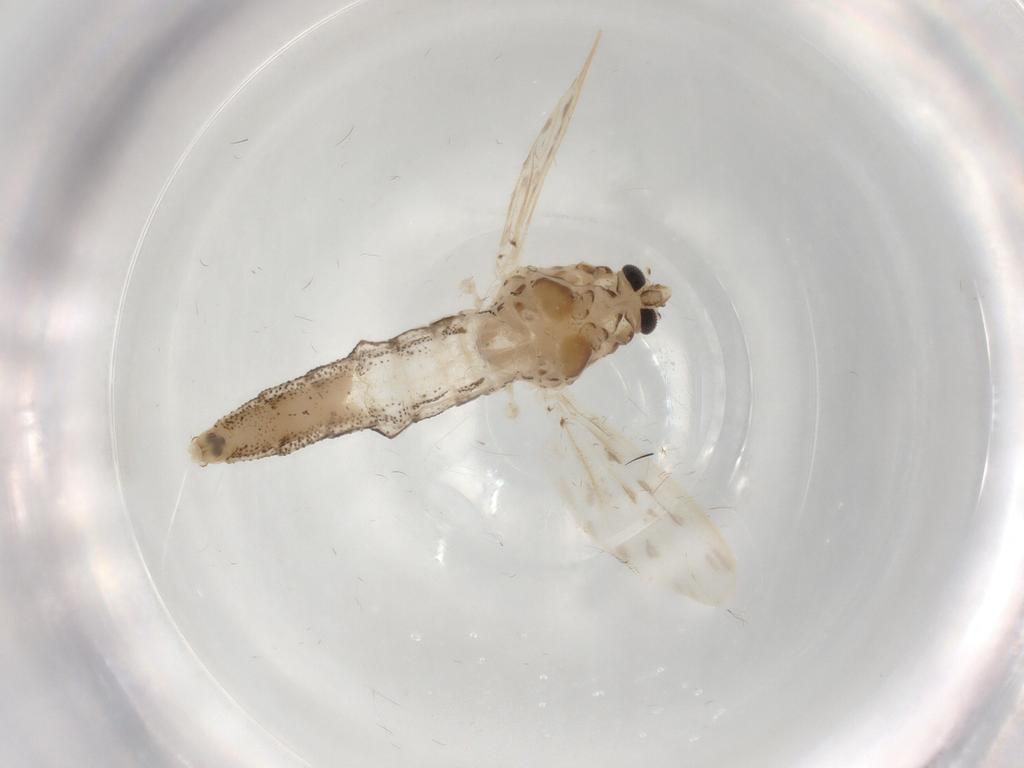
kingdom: Animalia
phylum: Arthropoda
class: Insecta
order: Diptera
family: Chaoboridae
